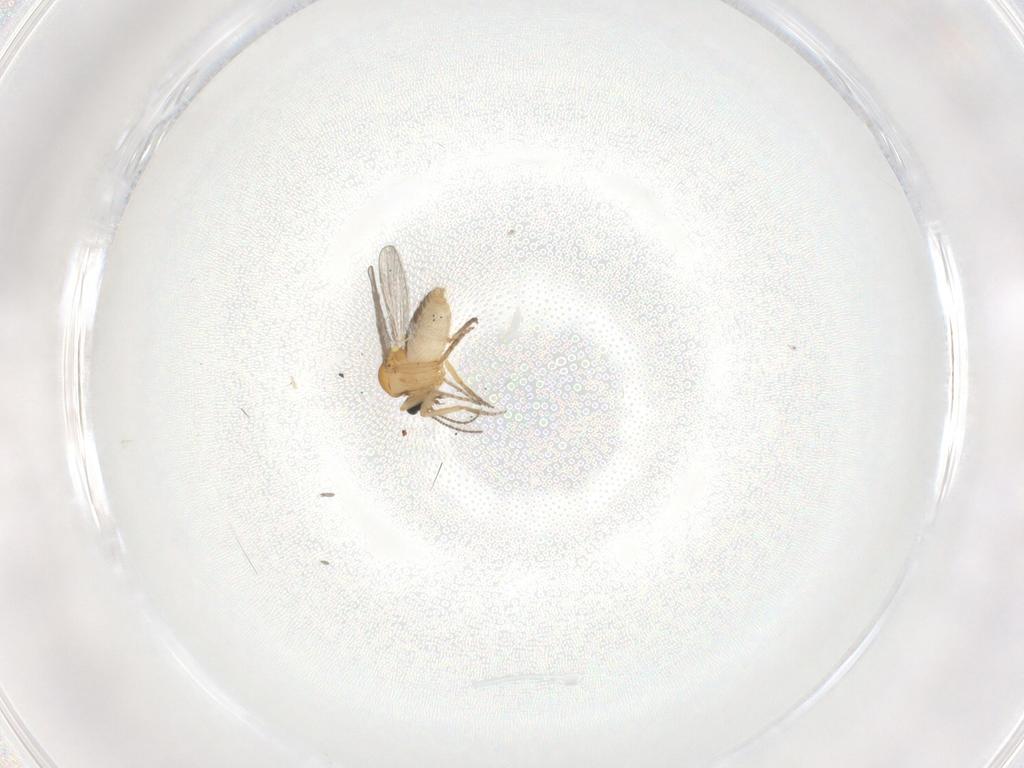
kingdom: Animalia
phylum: Arthropoda
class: Insecta
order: Diptera
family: Ceratopogonidae
